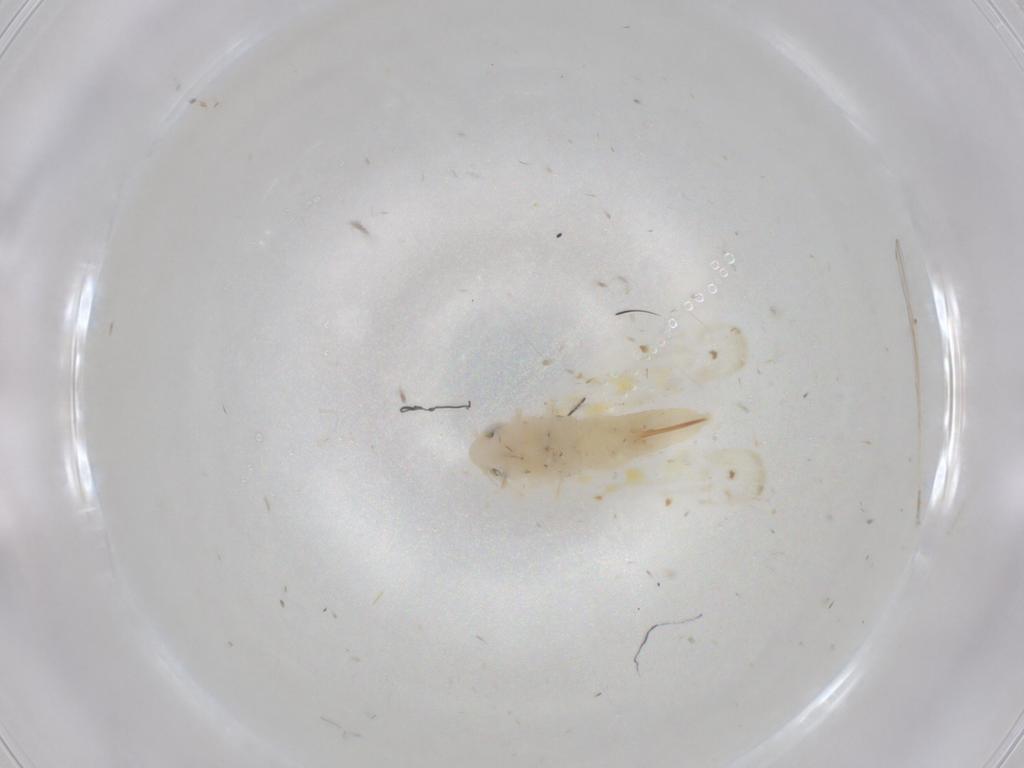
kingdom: Animalia
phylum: Arthropoda
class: Insecta
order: Hemiptera
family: Cicadellidae
